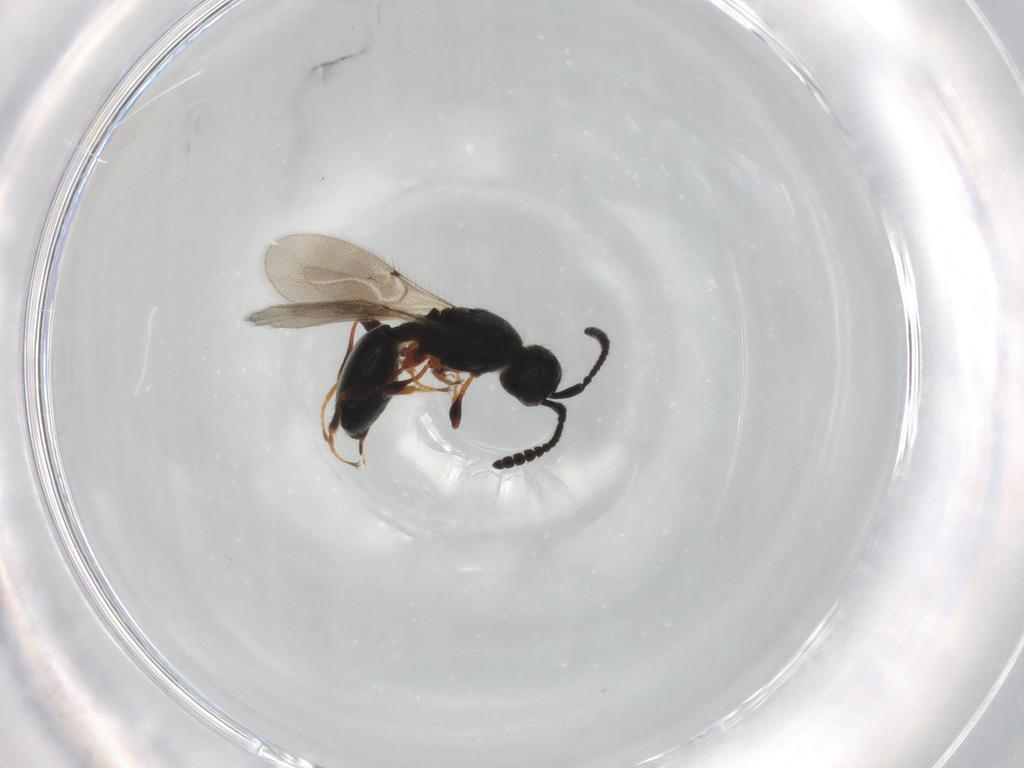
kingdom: Animalia
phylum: Arthropoda
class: Insecta
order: Hymenoptera
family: Diapriidae
